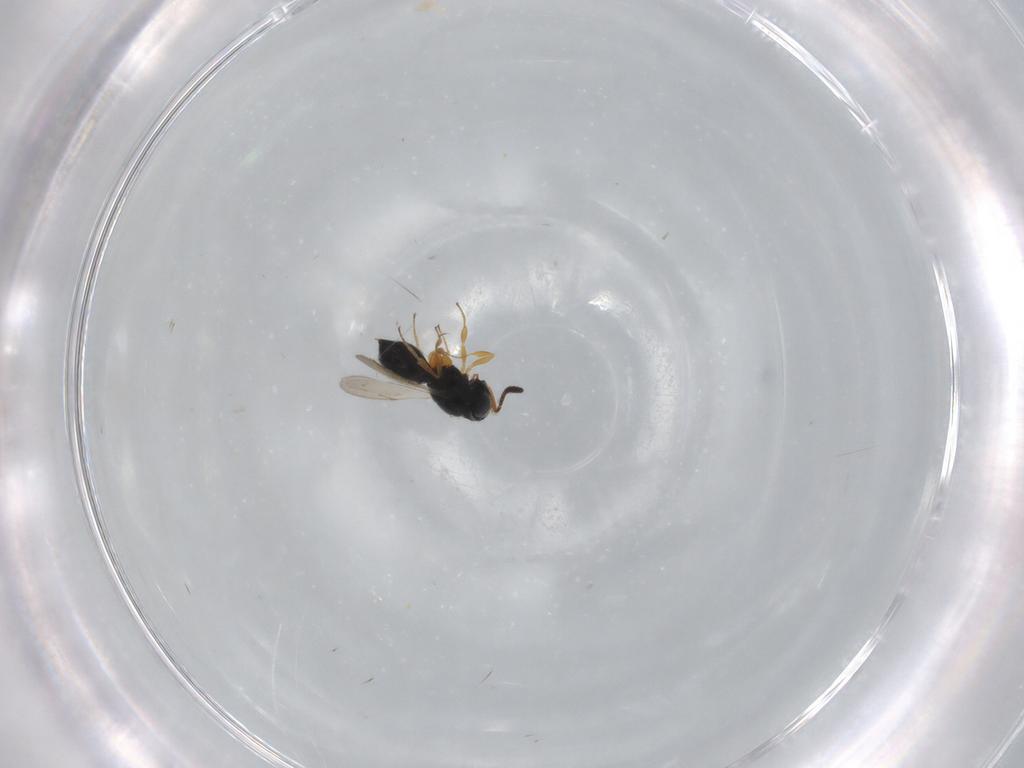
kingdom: Animalia
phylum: Arthropoda
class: Insecta
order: Hymenoptera
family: Scelionidae
